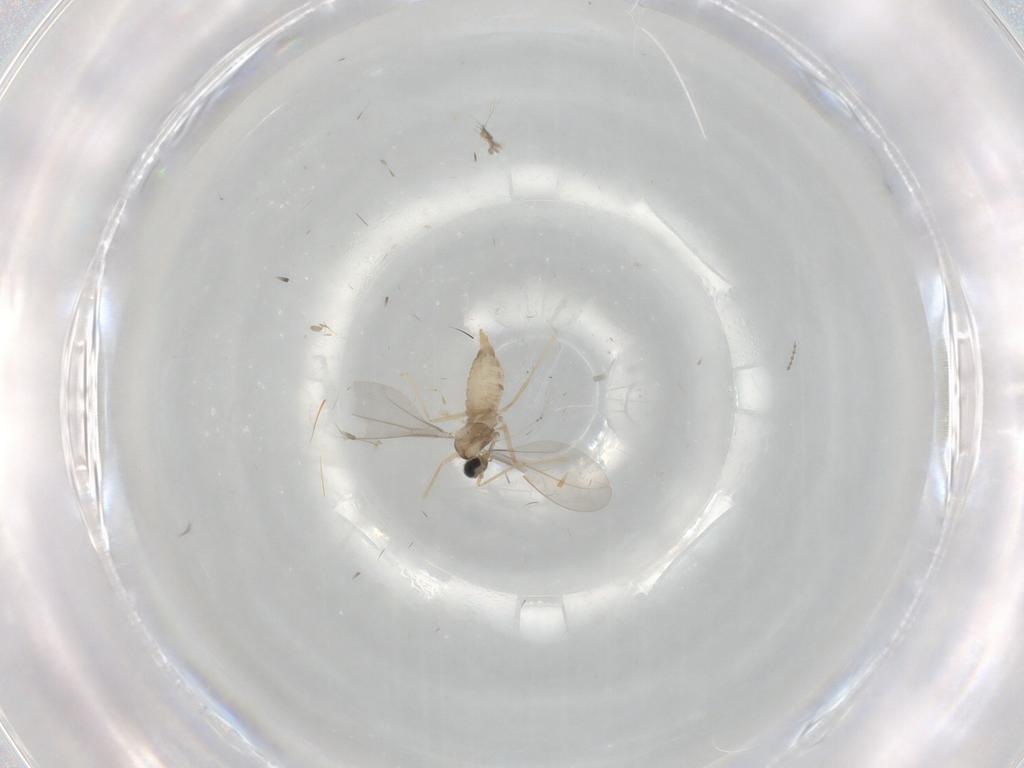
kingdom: Animalia
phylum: Arthropoda
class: Insecta
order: Diptera
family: Cecidomyiidae
